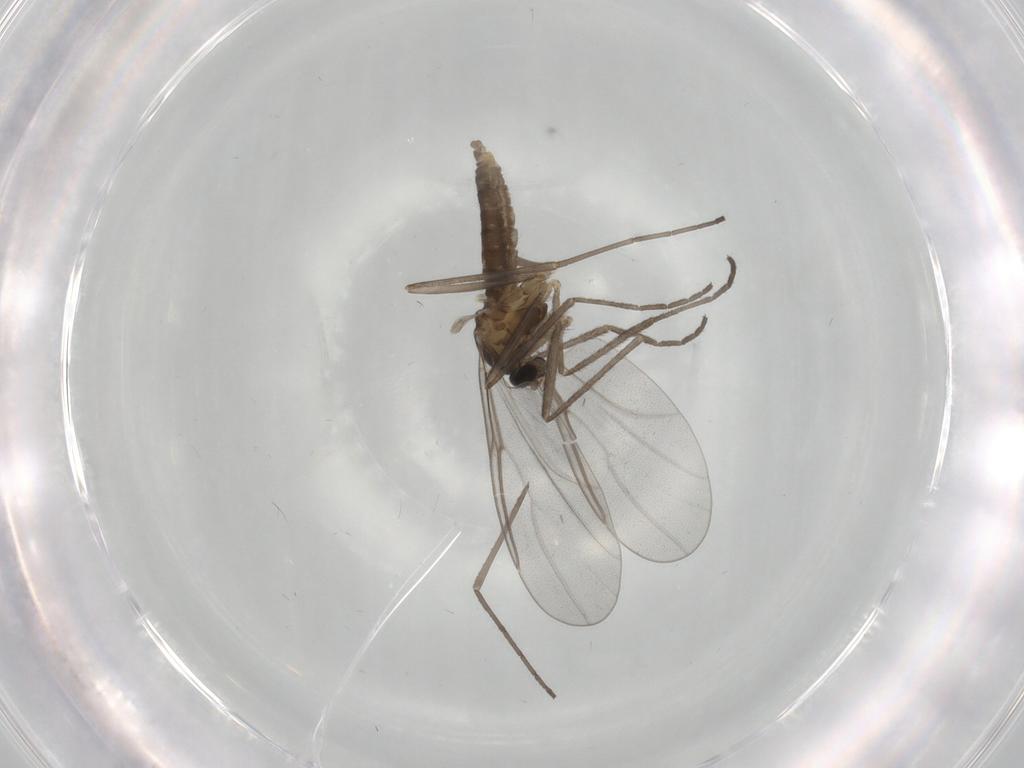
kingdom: Animalia
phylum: Arthropoda
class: Insecta
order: Diptera
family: Cecidomyiidae
